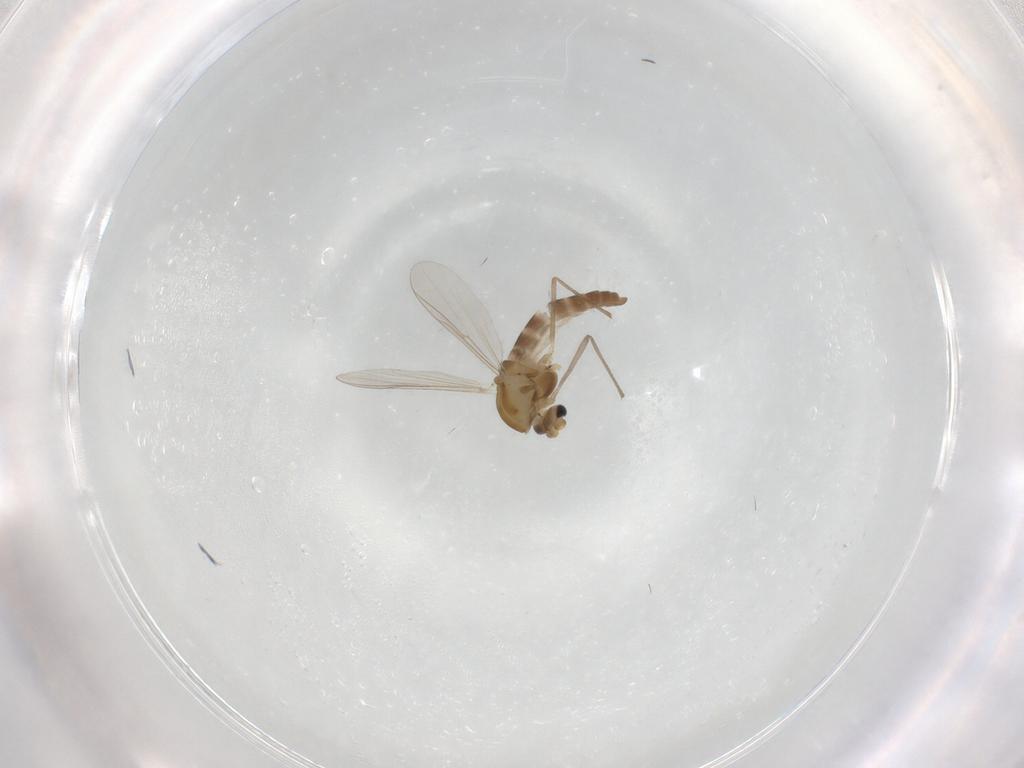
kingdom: Animalia
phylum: Arthropoda
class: Insecta
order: Diptera
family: Chironomidae
